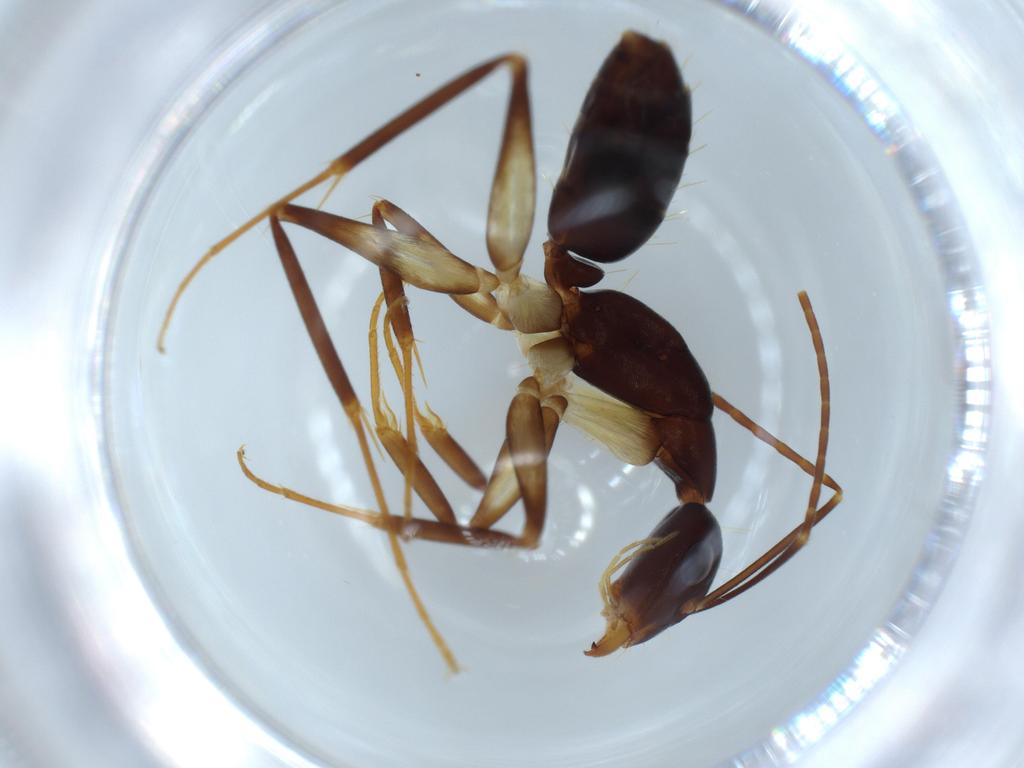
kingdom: Animalia
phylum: Arthropoda
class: Insecta
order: Hymenoptera
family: Formicidae
